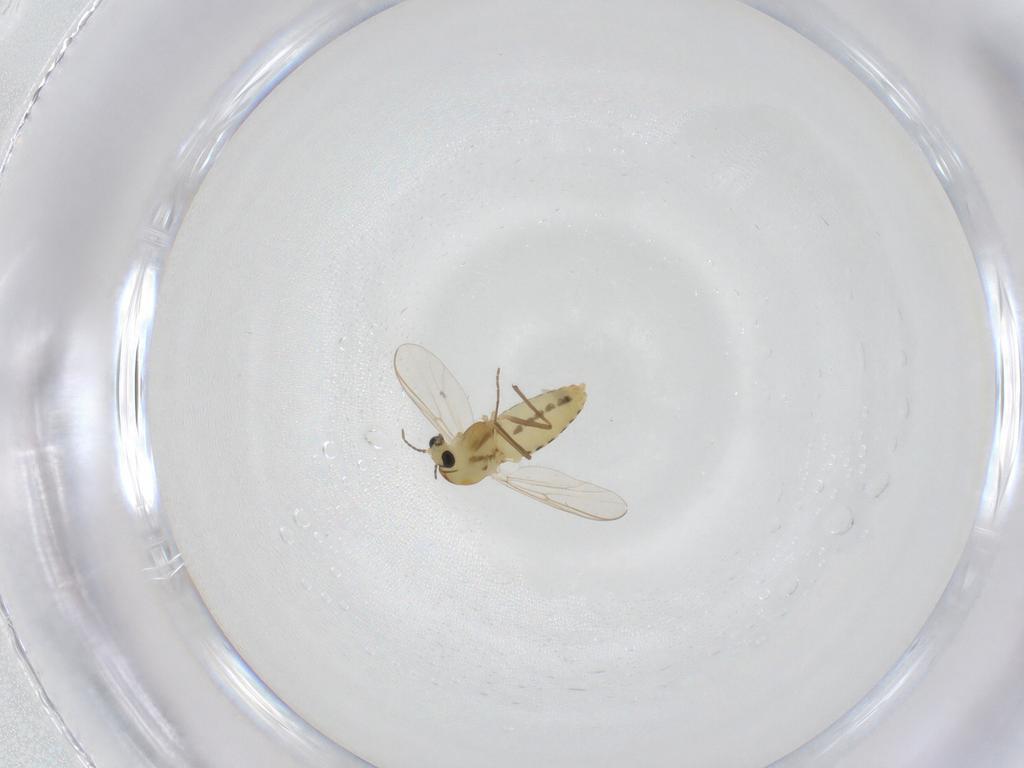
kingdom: Animalia
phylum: Arthropoda
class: Insecta
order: Diptera
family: Chironomidae
